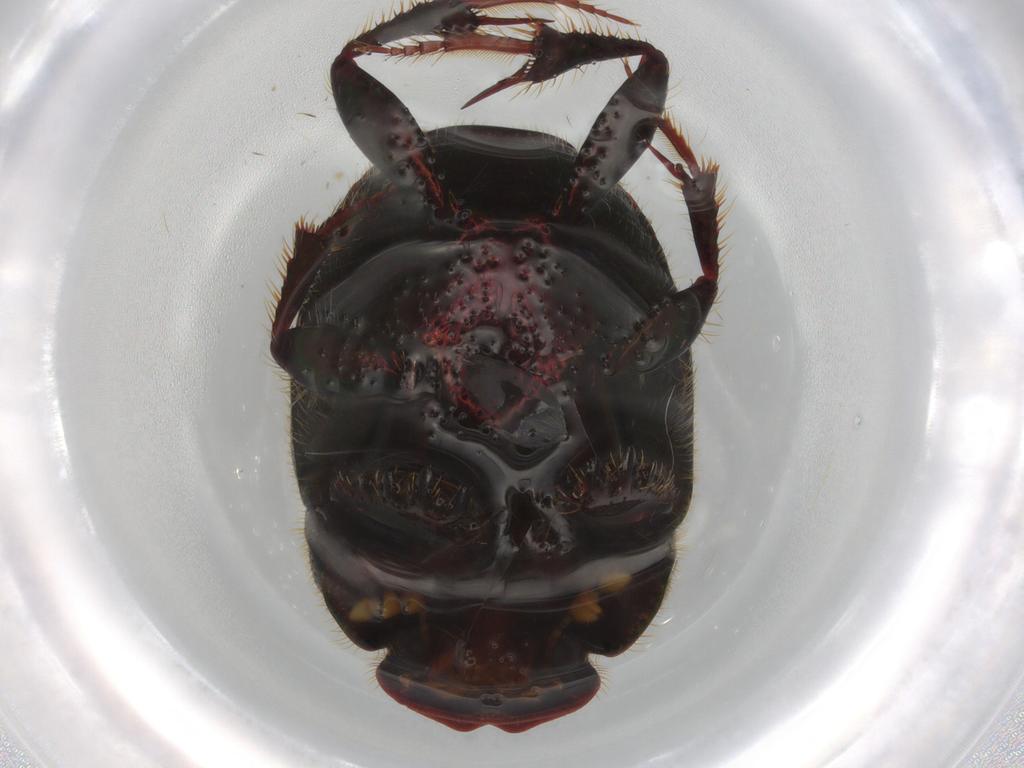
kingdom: Animalia
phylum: Arthropoda
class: Insecta
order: Coleoptera
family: Scarabaeidae
